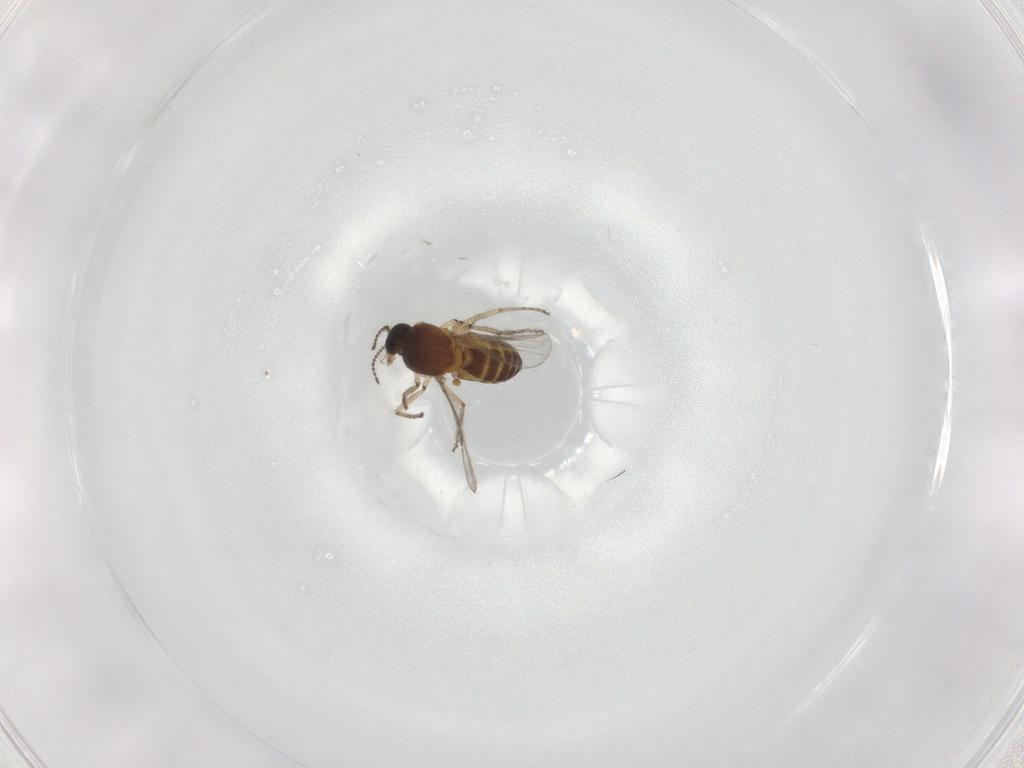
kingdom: Animalia
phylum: Arthropoda
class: Insecta
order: Diptera
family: Ceratopogonidae
